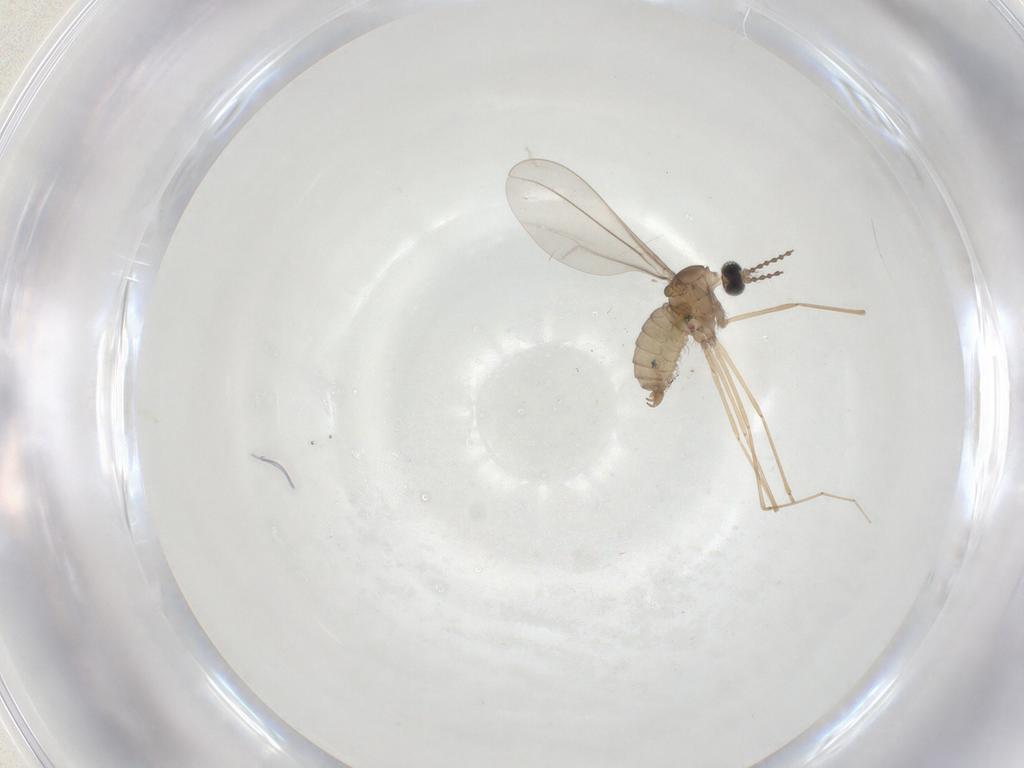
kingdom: Animalia
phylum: Arthropoda
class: Insecta
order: Diptera
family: Cecidomyiidae
